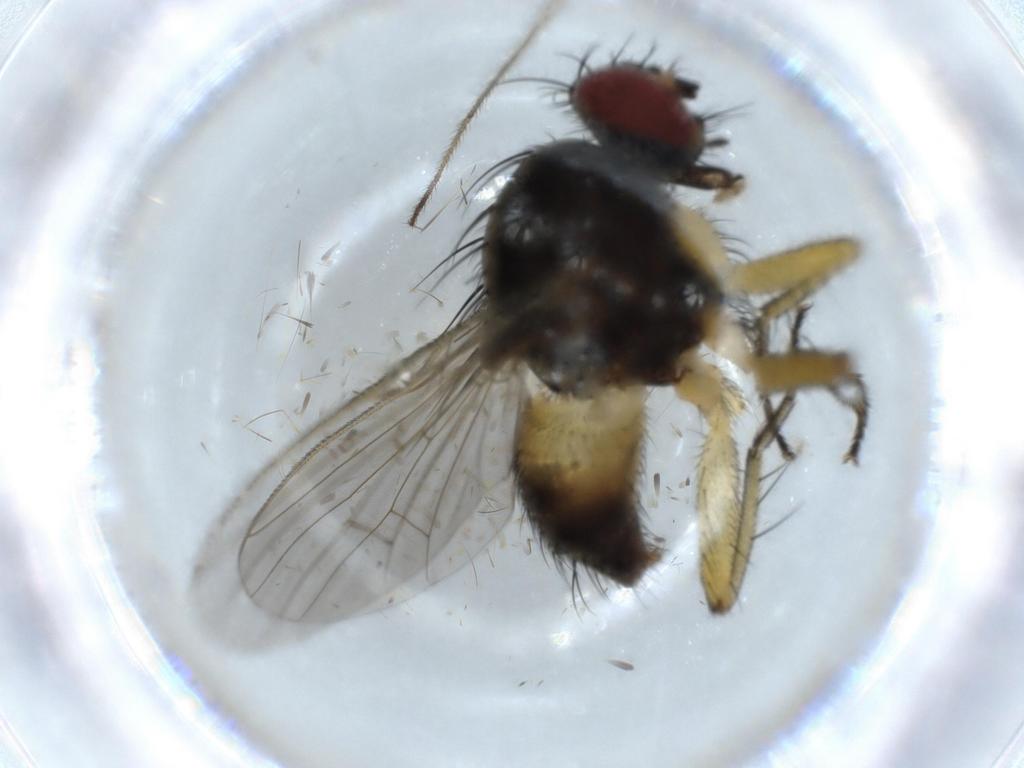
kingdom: Animalia
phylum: Arthropoda
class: Insecta
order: Diptera
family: Muscidae
